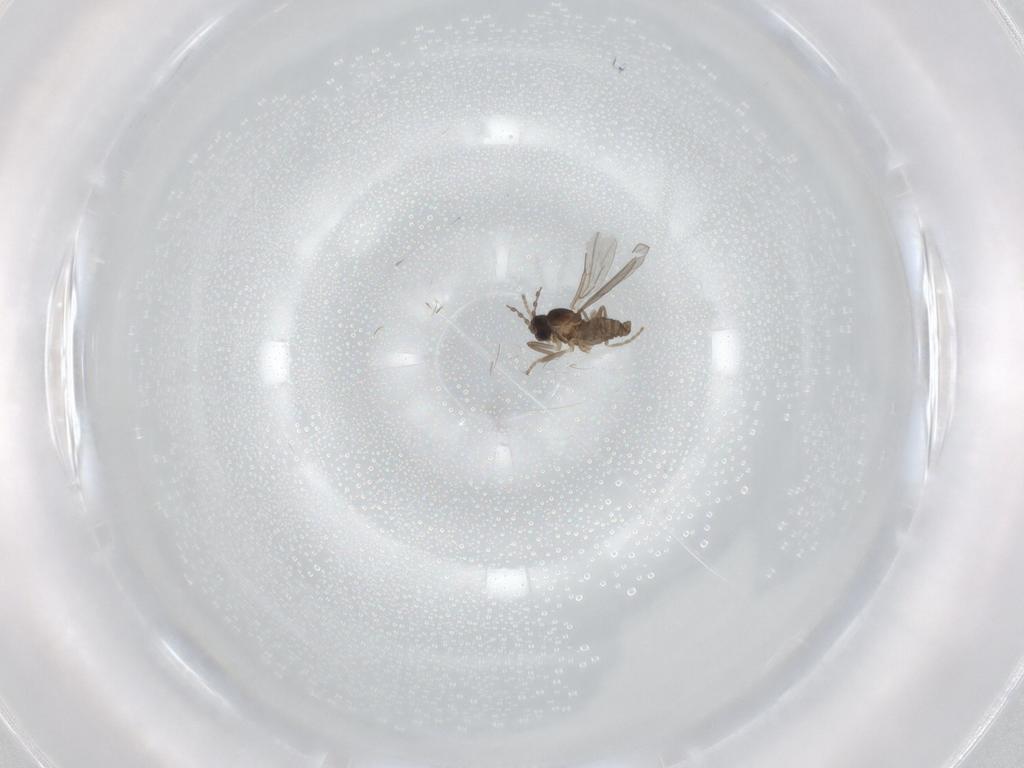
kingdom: Animalia
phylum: Arthropoda
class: Insecta
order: Diptera
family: Cecidomyiidae
